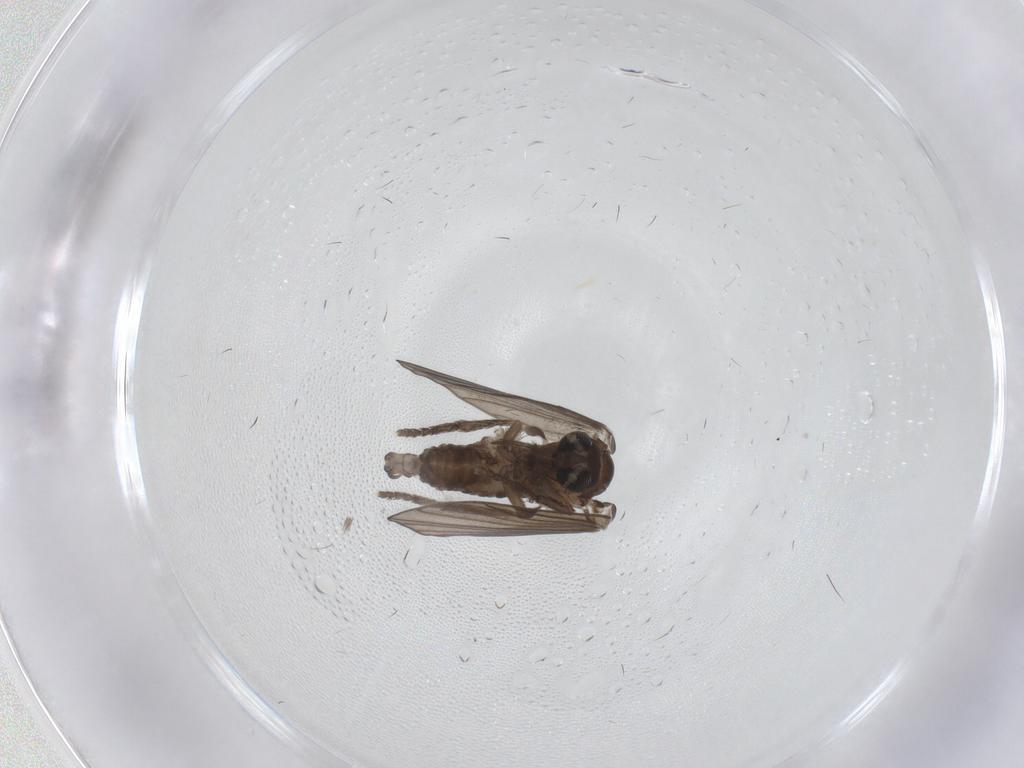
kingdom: Animalia
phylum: Arthropoda
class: Insecta
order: Diptera
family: Psychodidae
